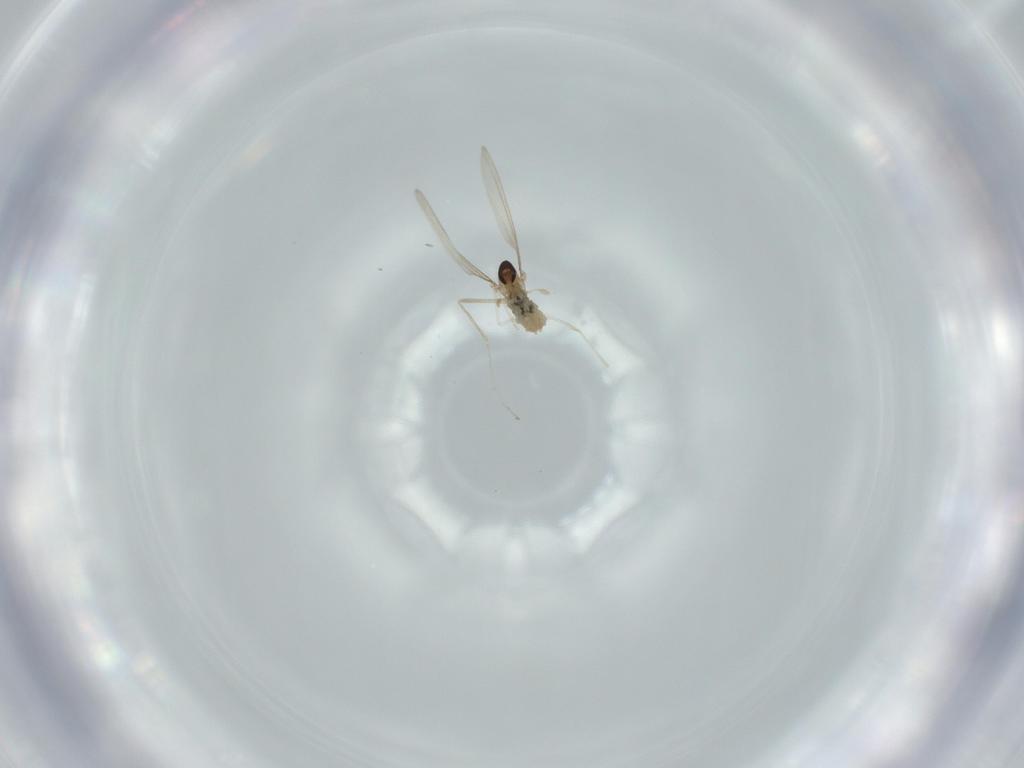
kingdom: Animalia
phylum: Arthropoda
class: Insecta
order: Diptera
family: Cecidomyiidae
